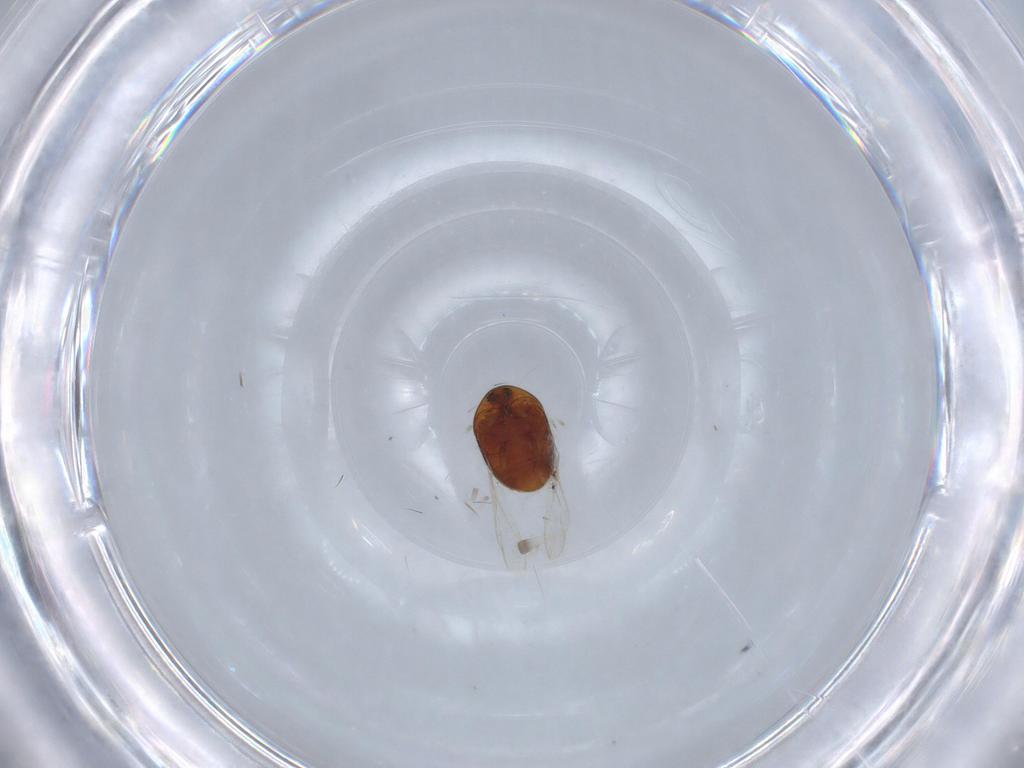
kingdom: Animalia
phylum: Arthropoda
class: Insecta
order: Coleoptera
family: Corylophidae
